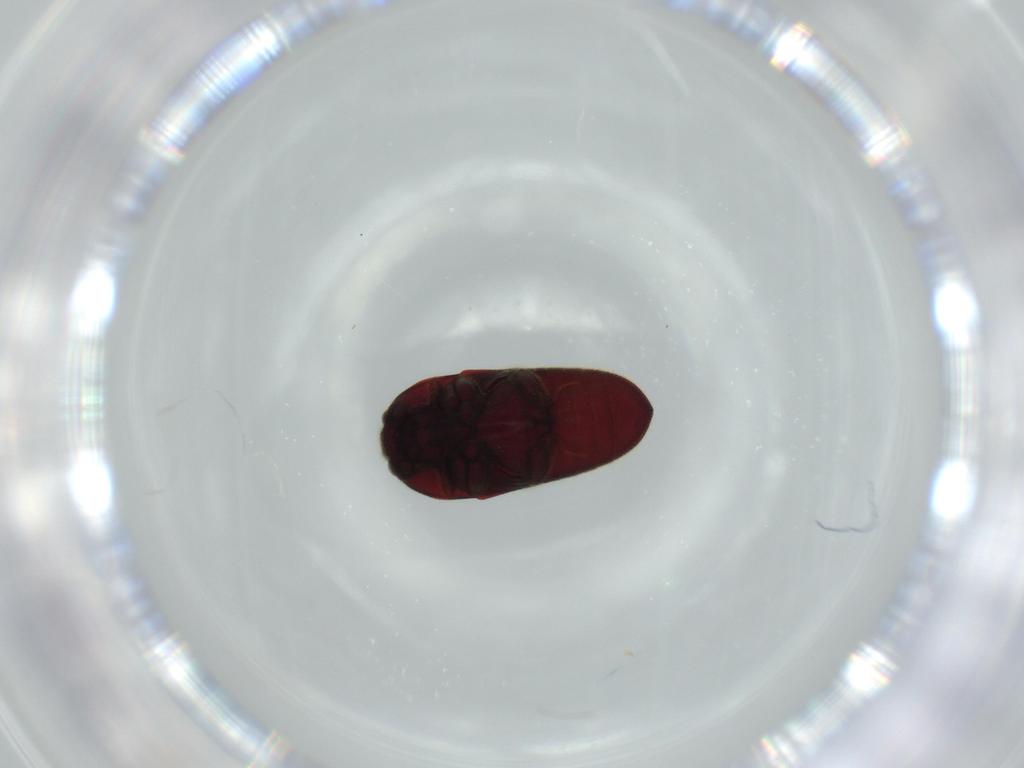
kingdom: Animalia
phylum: Arthropoda
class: Insecta
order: Coleoptera
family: Throscidae
